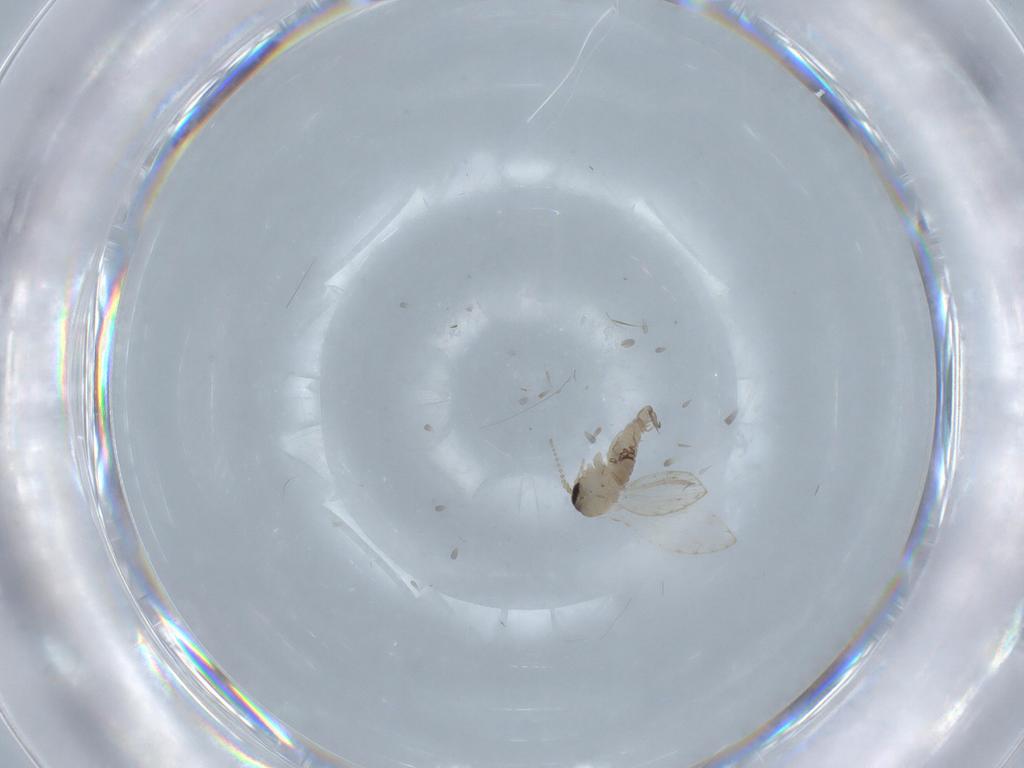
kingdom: Animalia
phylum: Arthropoda
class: Insecta
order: Diptera
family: Psychodidae
